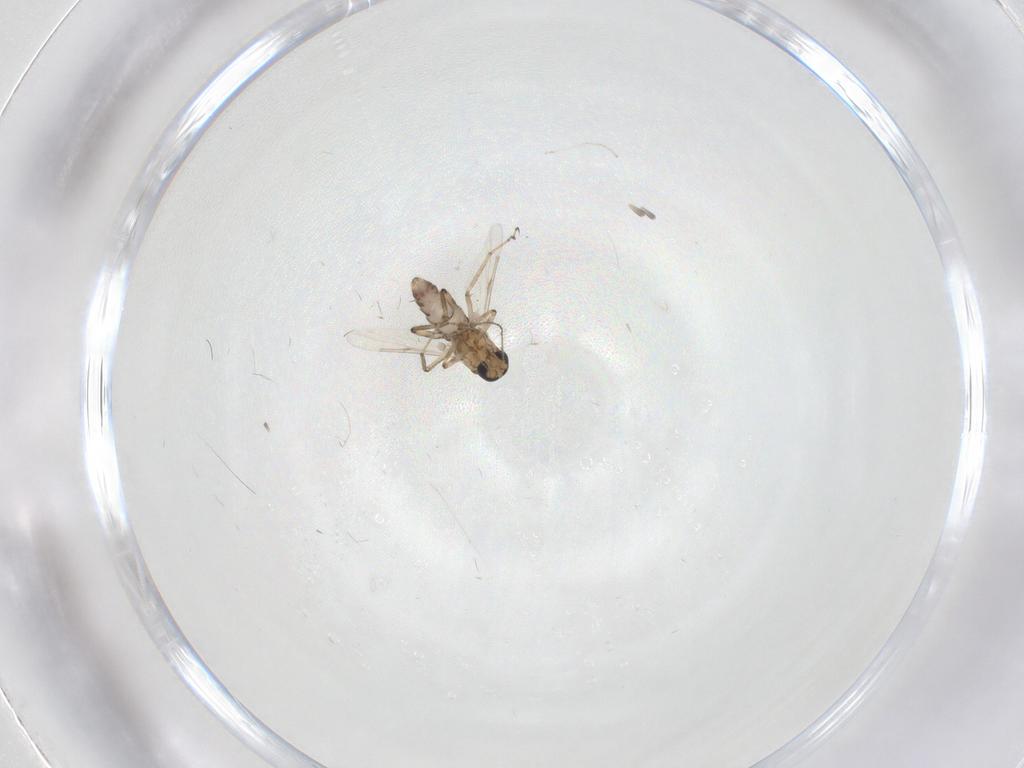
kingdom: Animalia
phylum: Arthropoda
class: Insecta
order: Diptera
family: Ceratopogonidae
